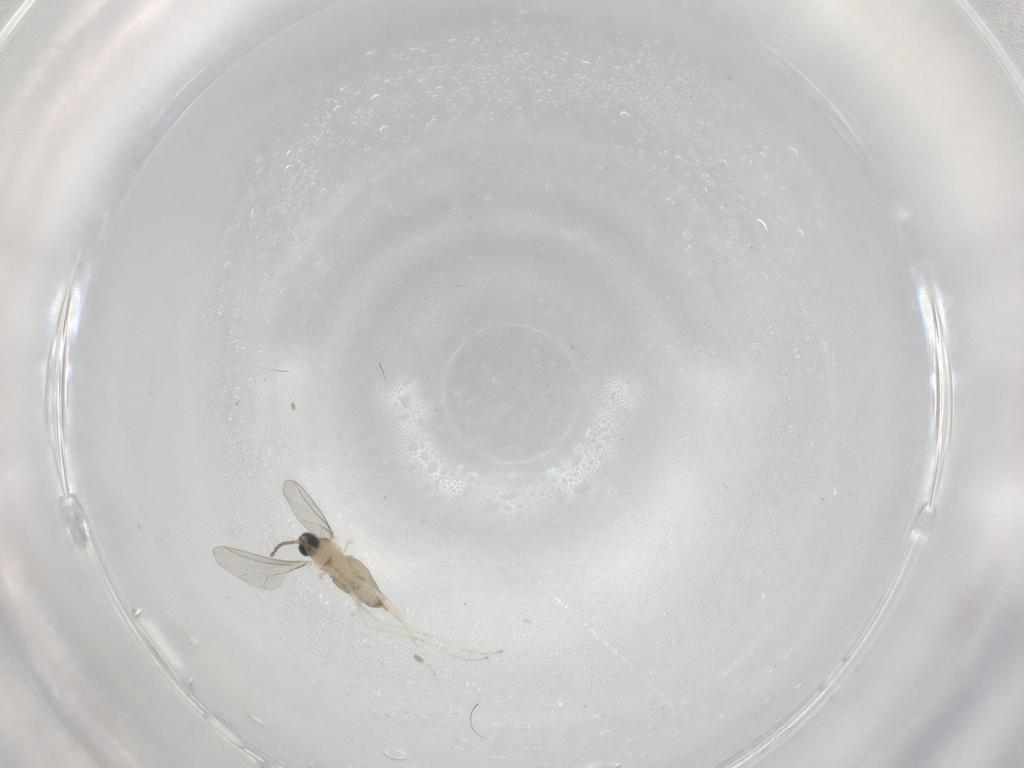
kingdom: Animalia
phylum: Arthropoda
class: Insecta
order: Diptera
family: Cecidomyiidae
